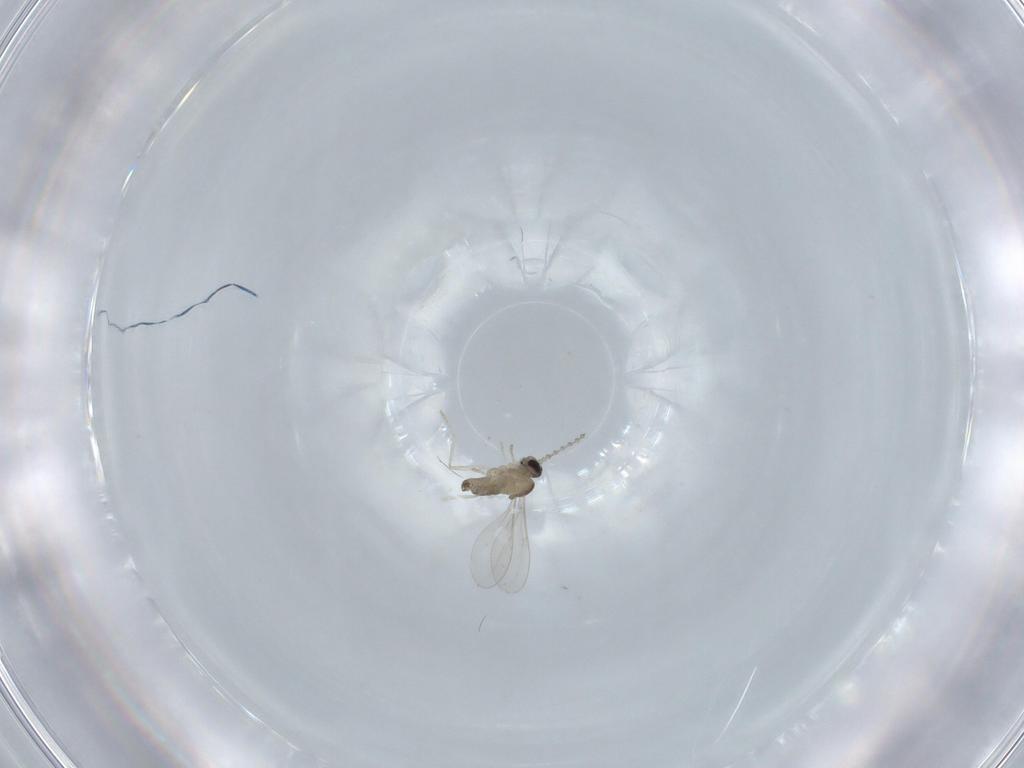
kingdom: Animalia
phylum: Arthropoda
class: Insecta
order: Diptera
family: Cecidomyiidae
